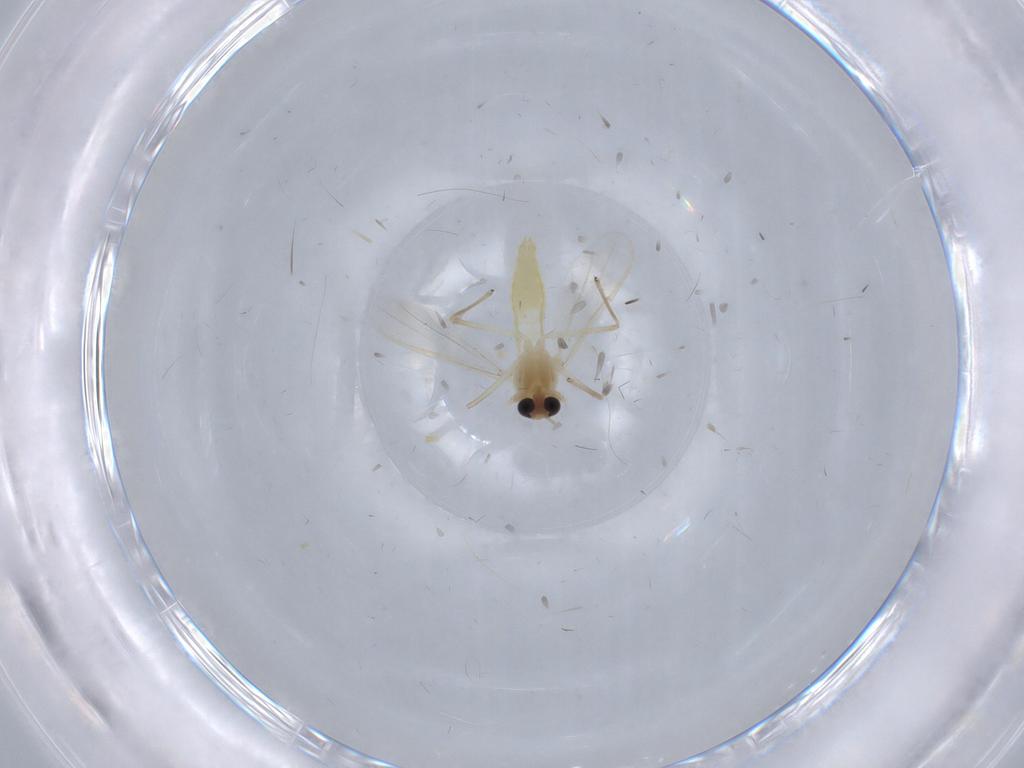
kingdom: Animalia
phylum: Arthropoda
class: Insecta
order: Diptera
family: Chironomidae
